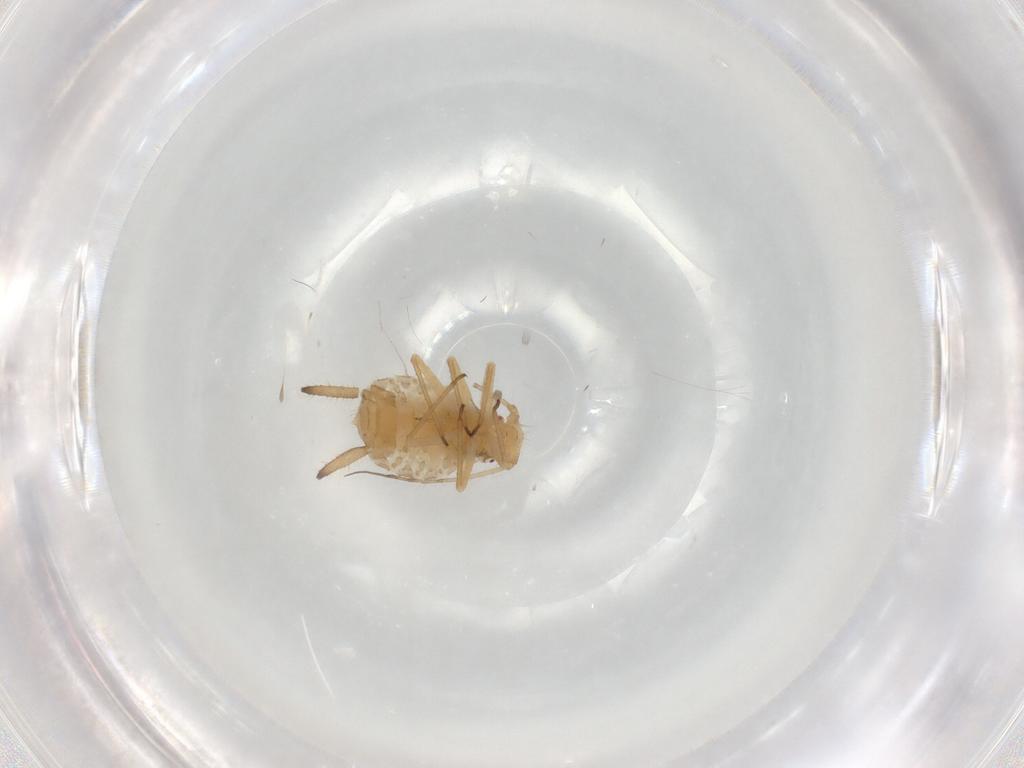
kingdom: Animalia
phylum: Arthropoda
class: Insecta
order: Hemiptera
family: Aphididae
